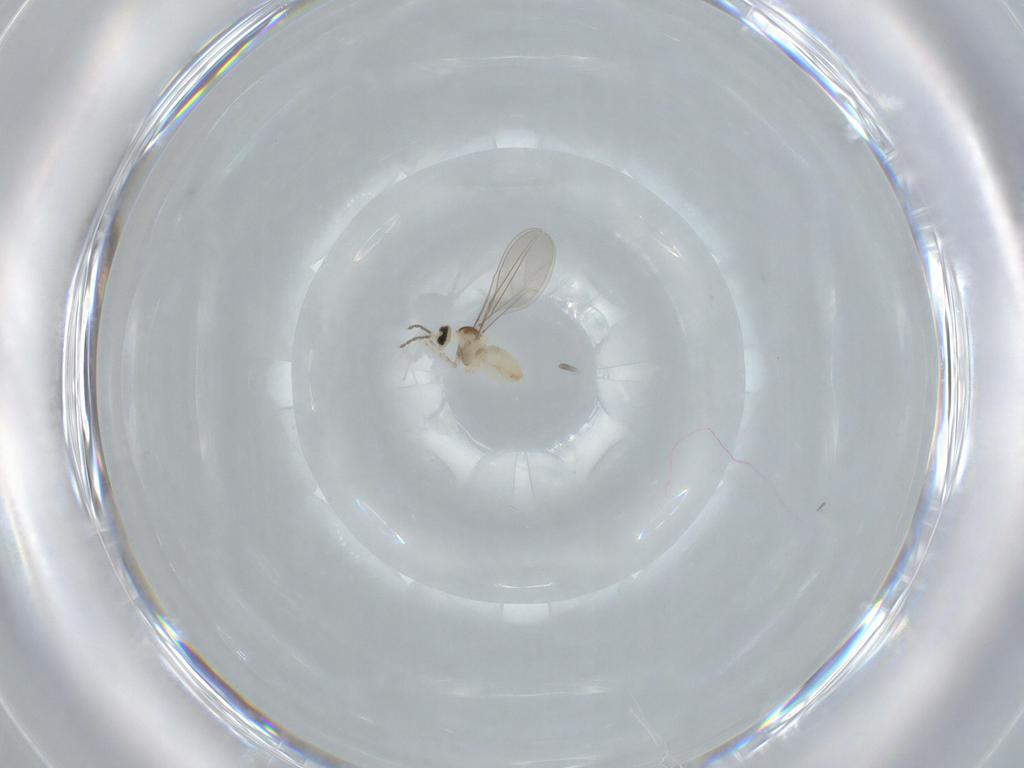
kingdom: Animalia
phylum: Arthropoda
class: Insecta
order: Diptera
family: Cecidomyiidae
